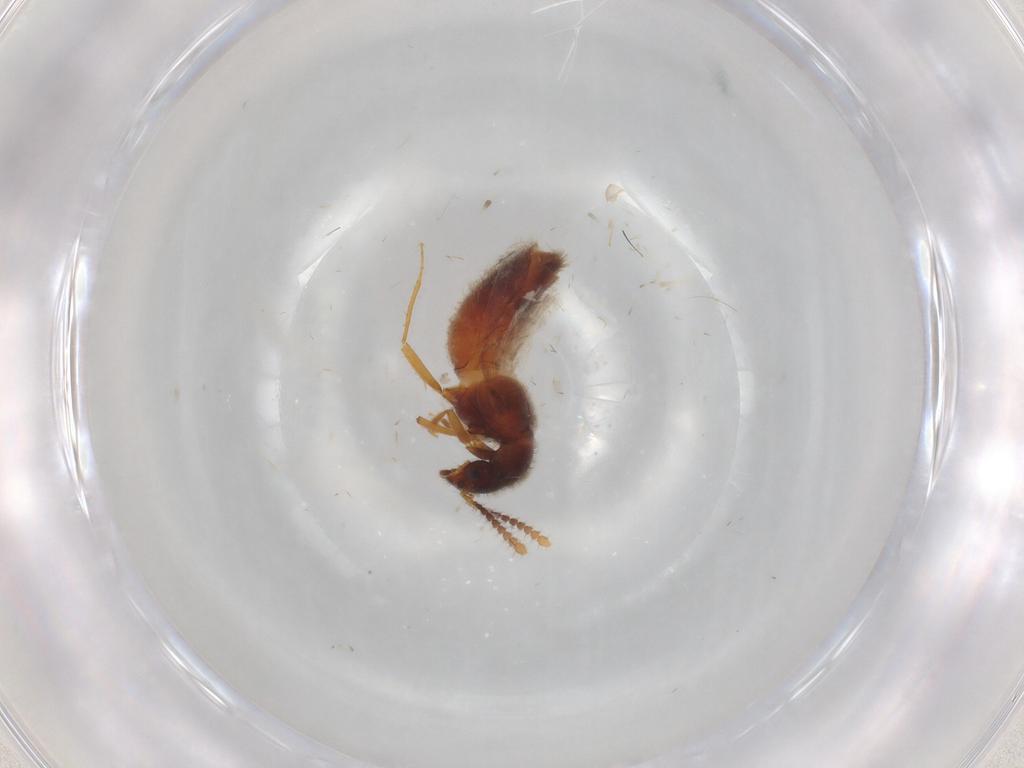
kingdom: Animalia
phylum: Arthropoda
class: Insecta
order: Coleoptera
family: Staphylinidae
